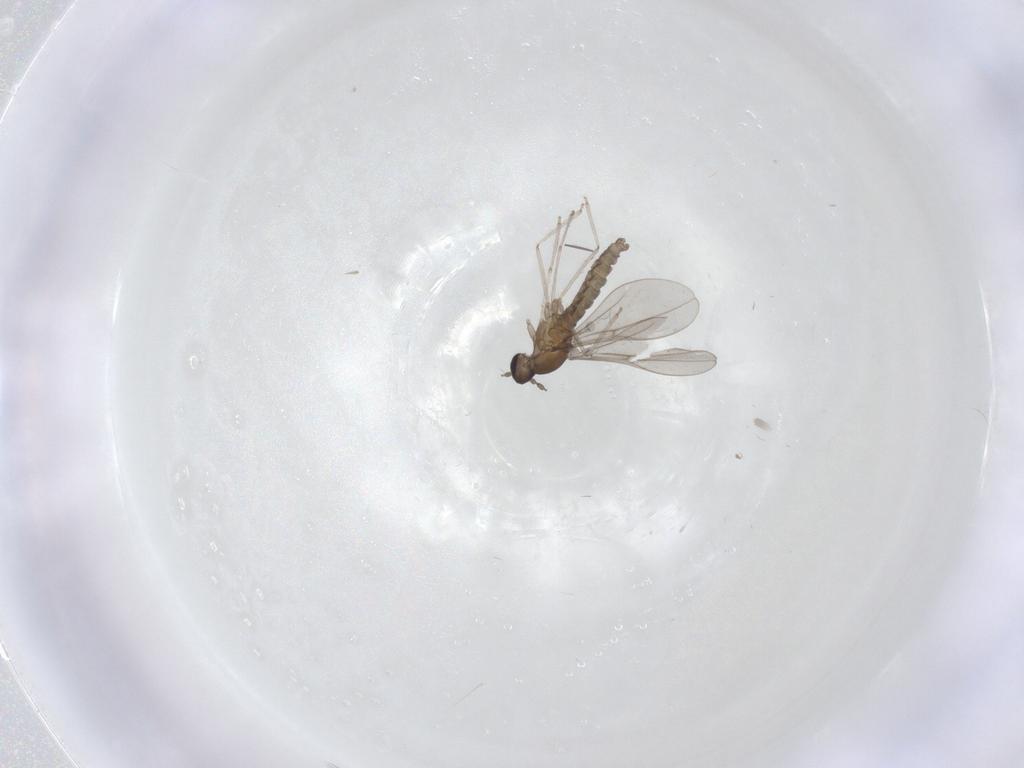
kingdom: Animalia
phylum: Arthropoda
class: Insecta
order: Diptera
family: Cecidomyiidae
